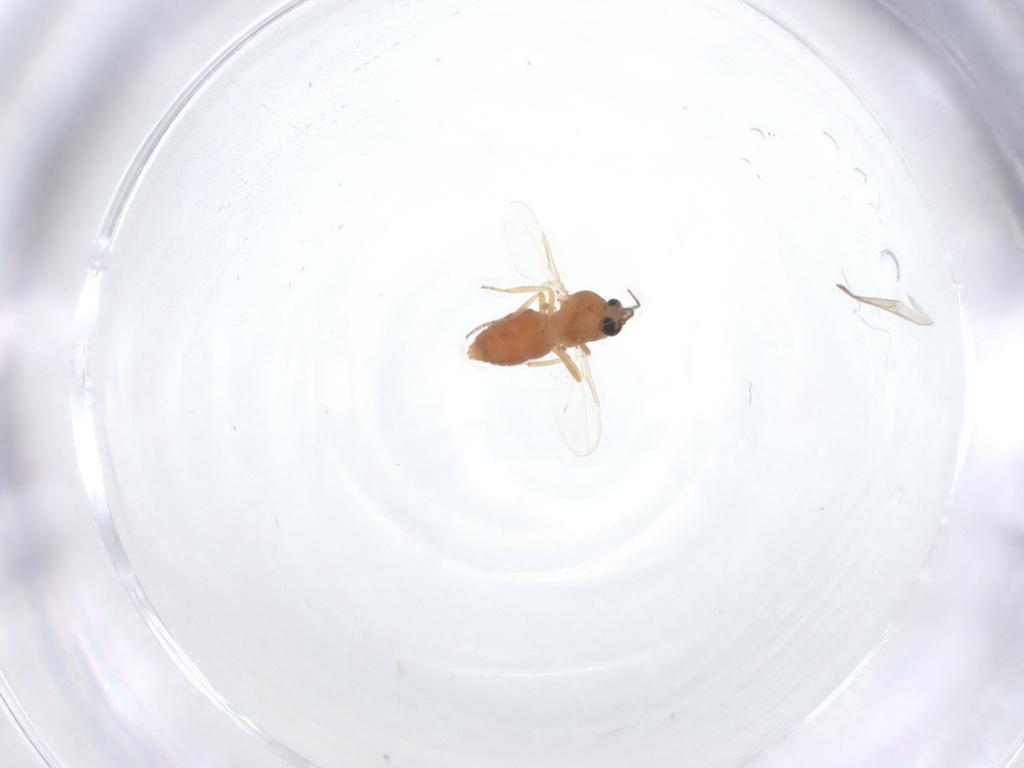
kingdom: Animalia
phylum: Arthropoda
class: Insecta
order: Diptera
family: Ceratopogonidae
